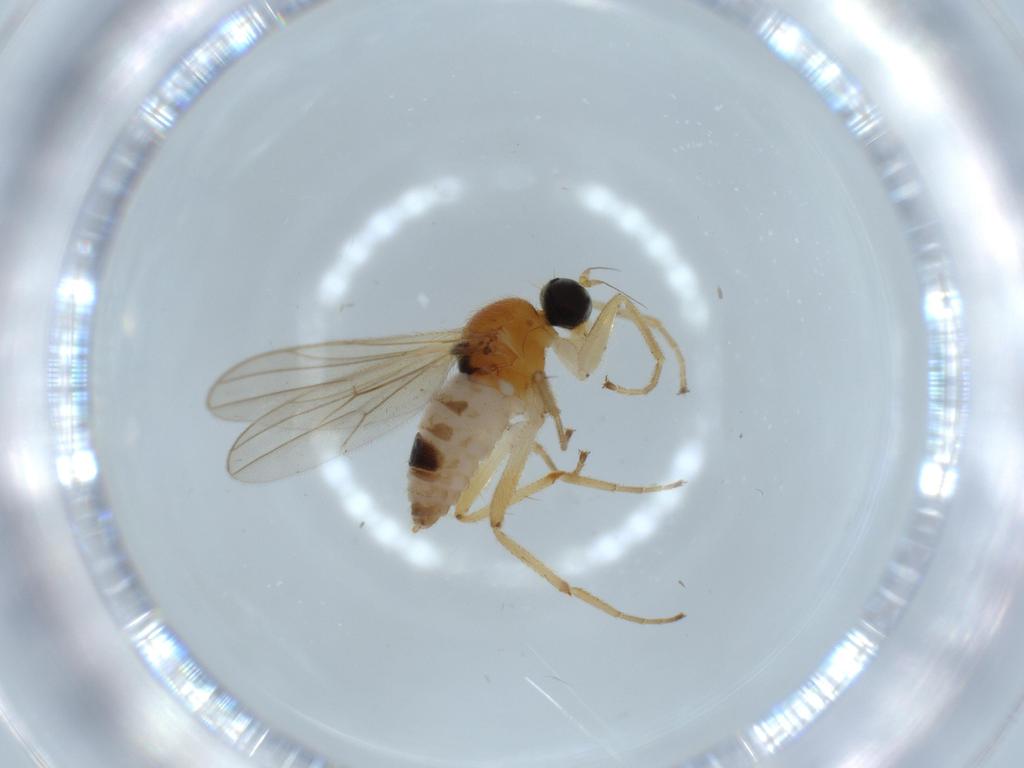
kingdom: Animalia
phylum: Arthropoda
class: Insecta
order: Diptera
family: Hybotidae
